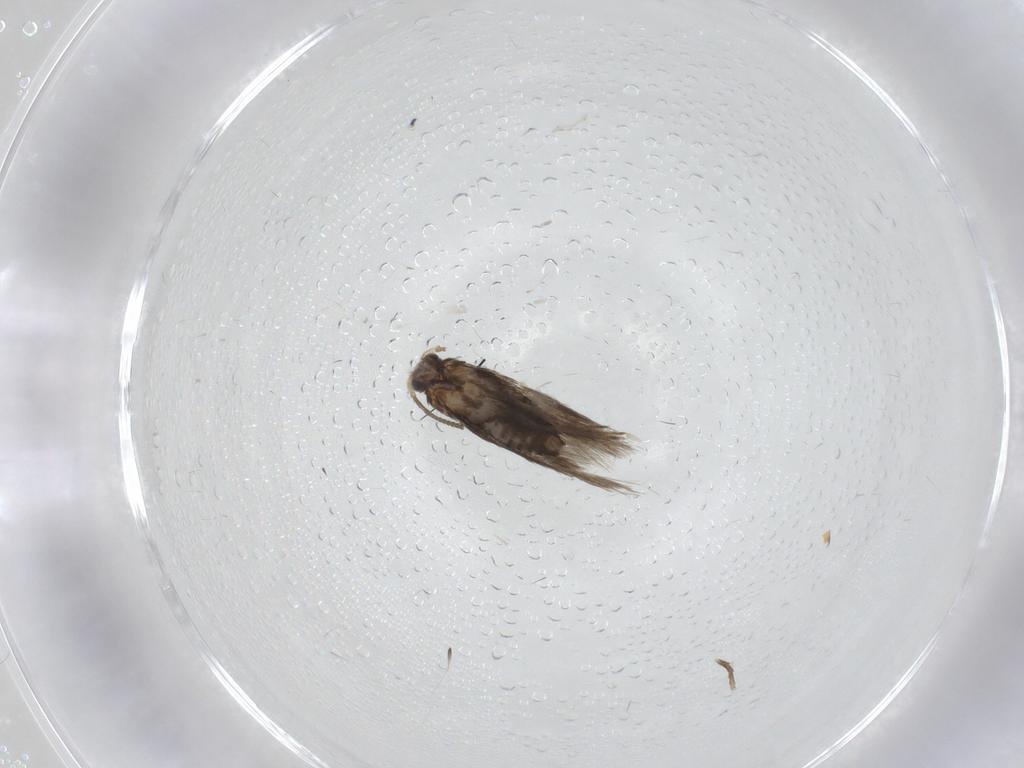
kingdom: Animalia
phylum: Arthropoda
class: Insecta
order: Lepidoptera
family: Nepticulidae
